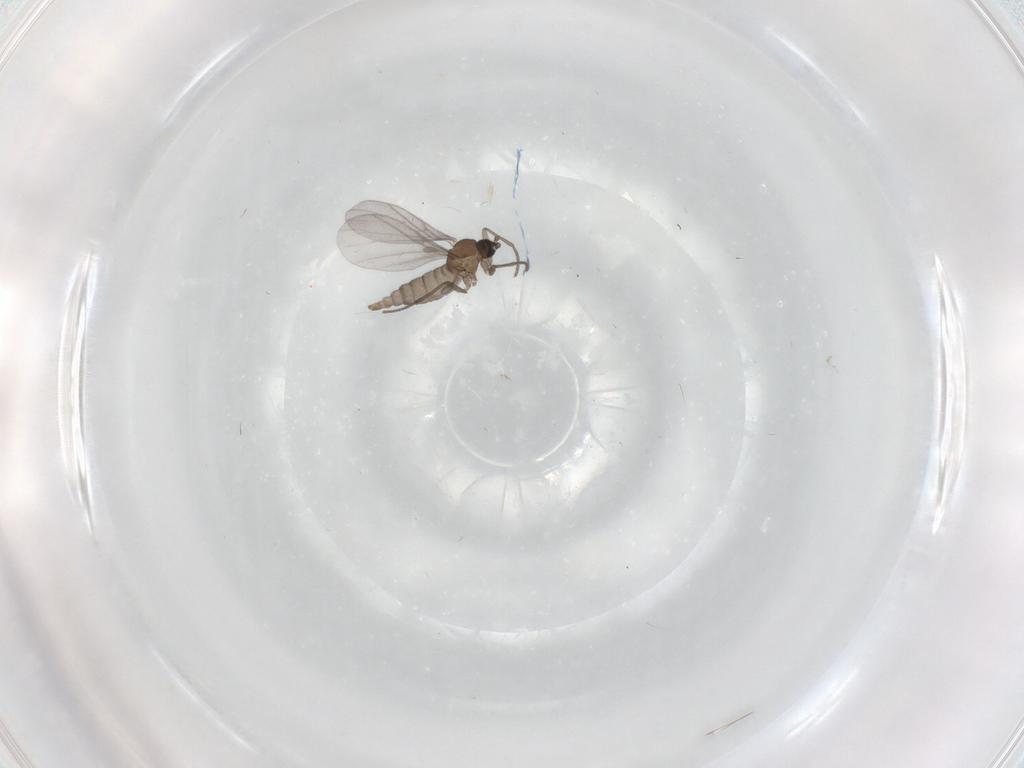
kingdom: Animalia
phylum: Arthropoda
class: Insecta
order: Diptera
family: Sciaridae
